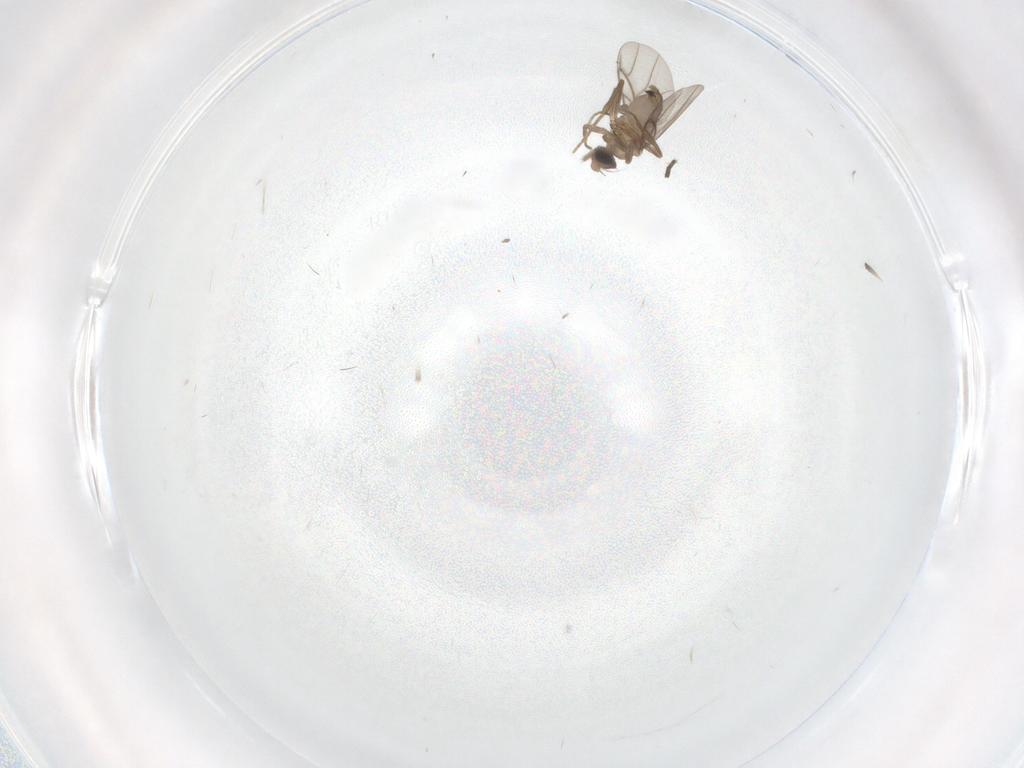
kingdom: Animalia
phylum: Arthropoda
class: Insecta
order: Diptera
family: Sciaridae
